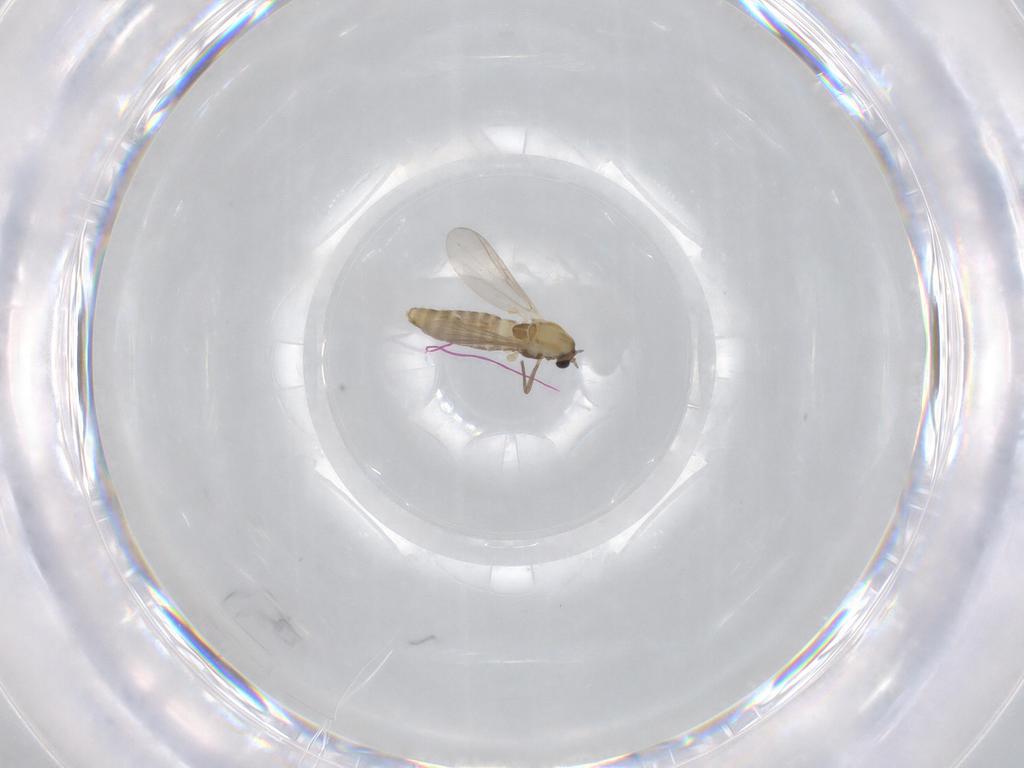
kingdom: Animalia
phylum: Arthropoda
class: Insecta
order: Diptera
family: Chironomidae
